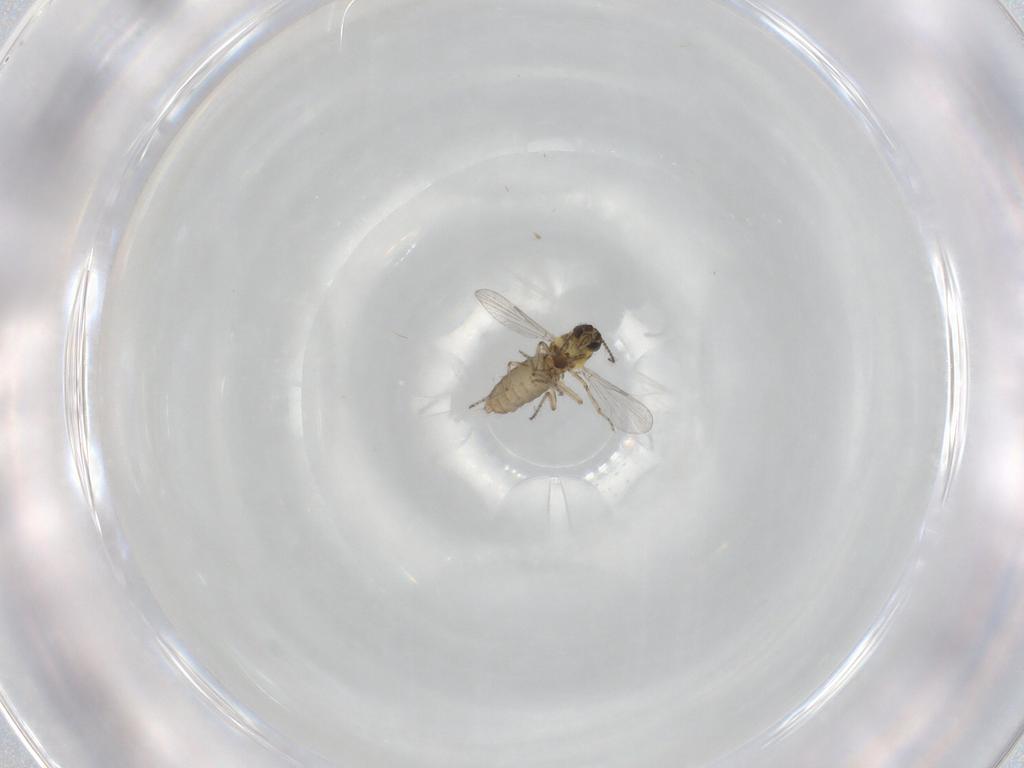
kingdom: Animalia
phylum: Arthropoda
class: Insecta
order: Diptera
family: Ceratopogonidae
